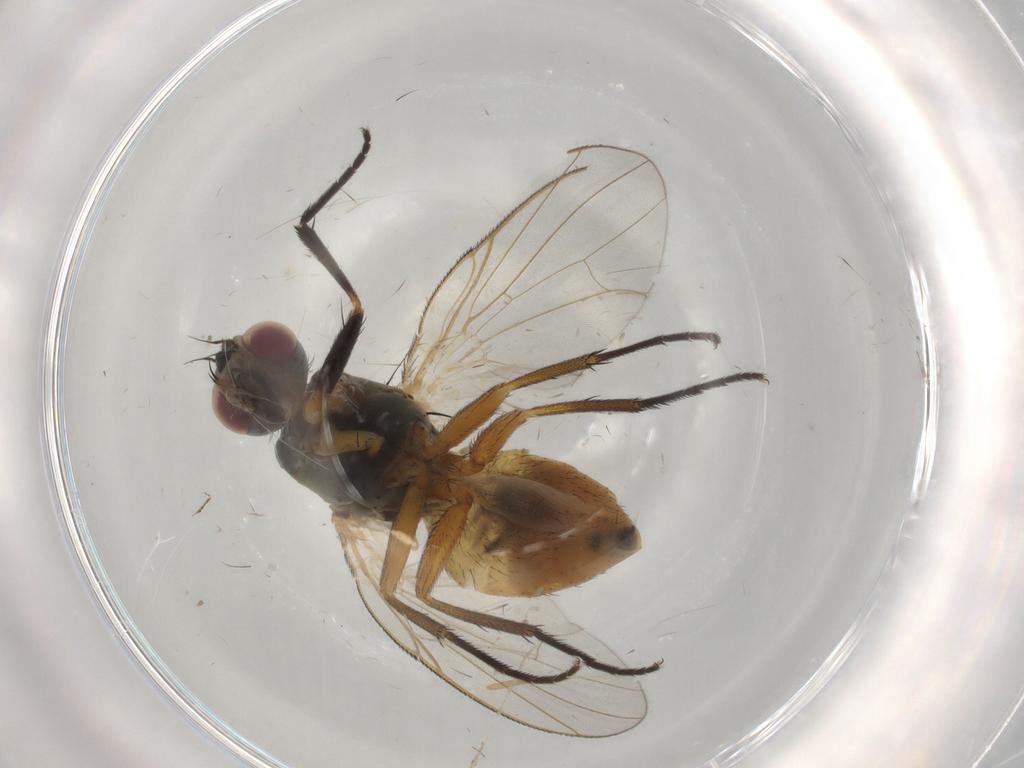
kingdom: Animalia
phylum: Arthropoda
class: Insecta
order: Diptera
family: Muscidae
